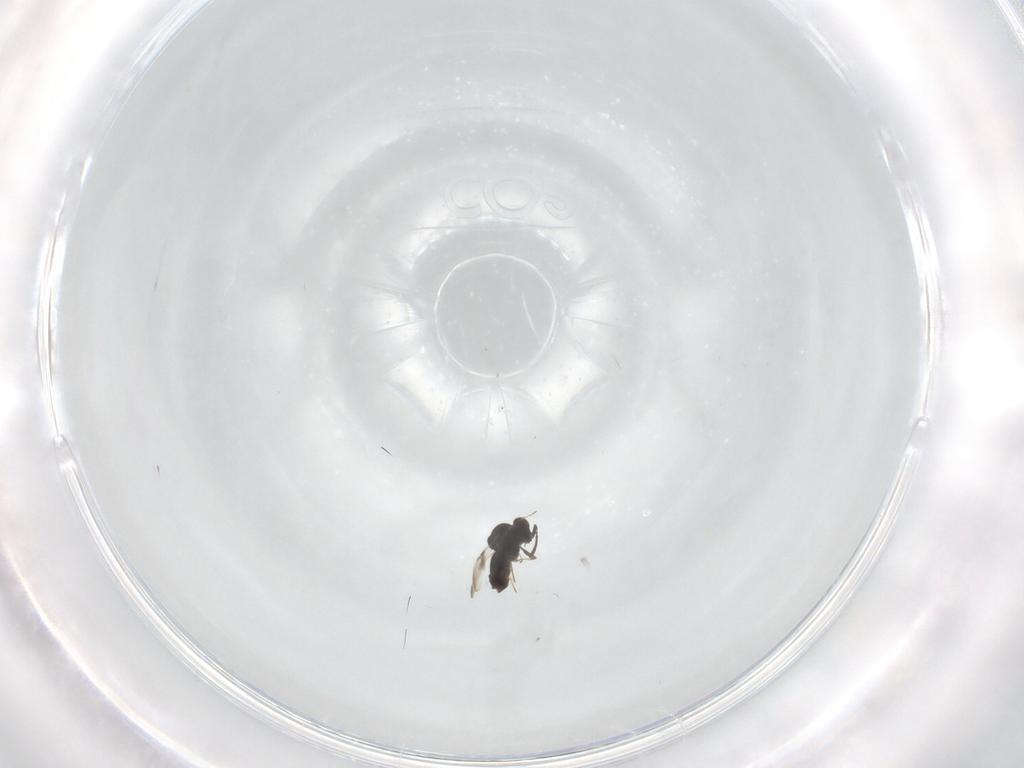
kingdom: Animalia
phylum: Arthropoda
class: Insecta
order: Hymenoptera
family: Ceraphronidae
